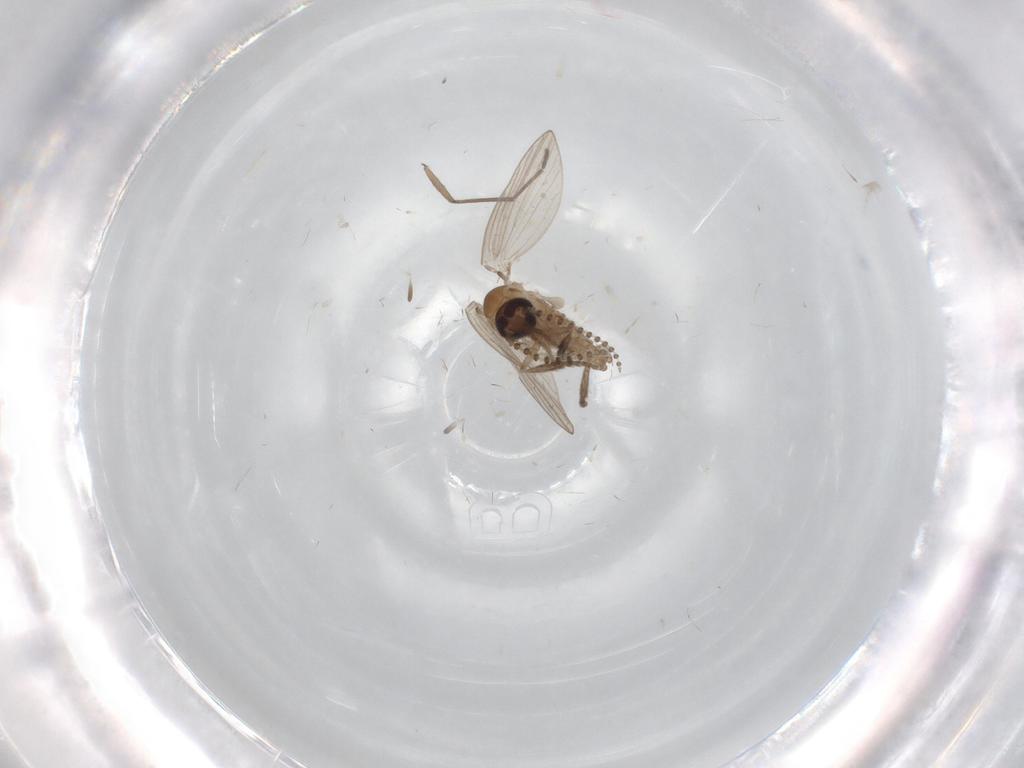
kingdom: Animalia
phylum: Arthropoda
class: Insecta
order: Diptera
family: Psychodidae
